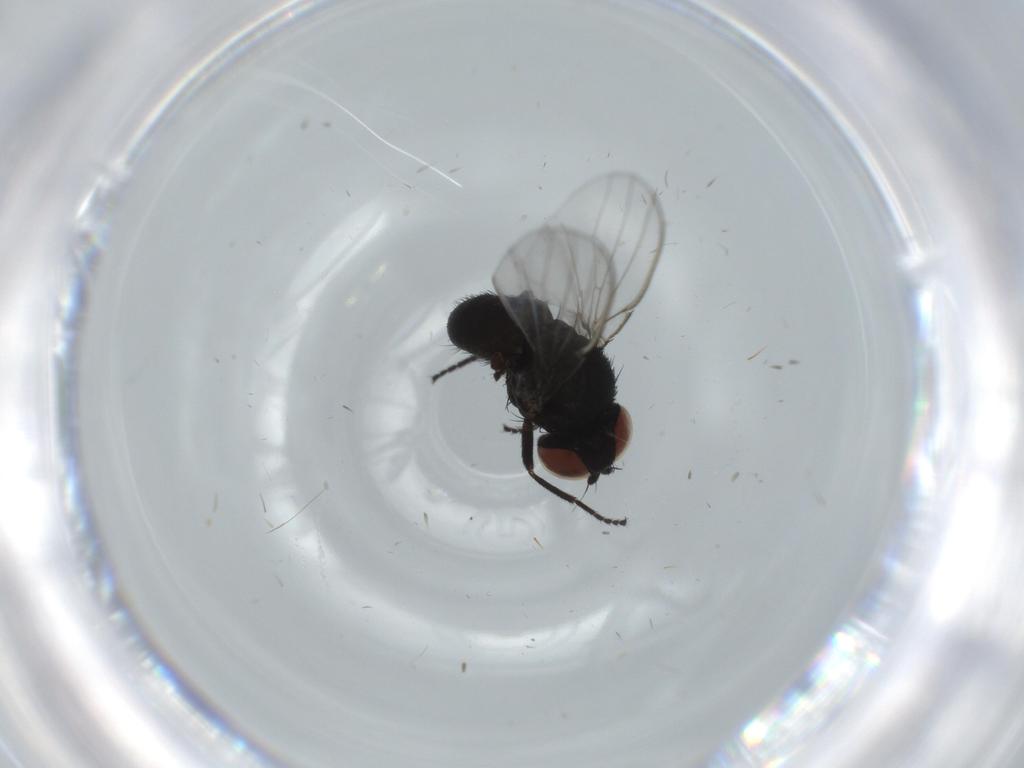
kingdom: Animalia
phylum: Arthropoda
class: Insecta
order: Diptera
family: Milichiidae
